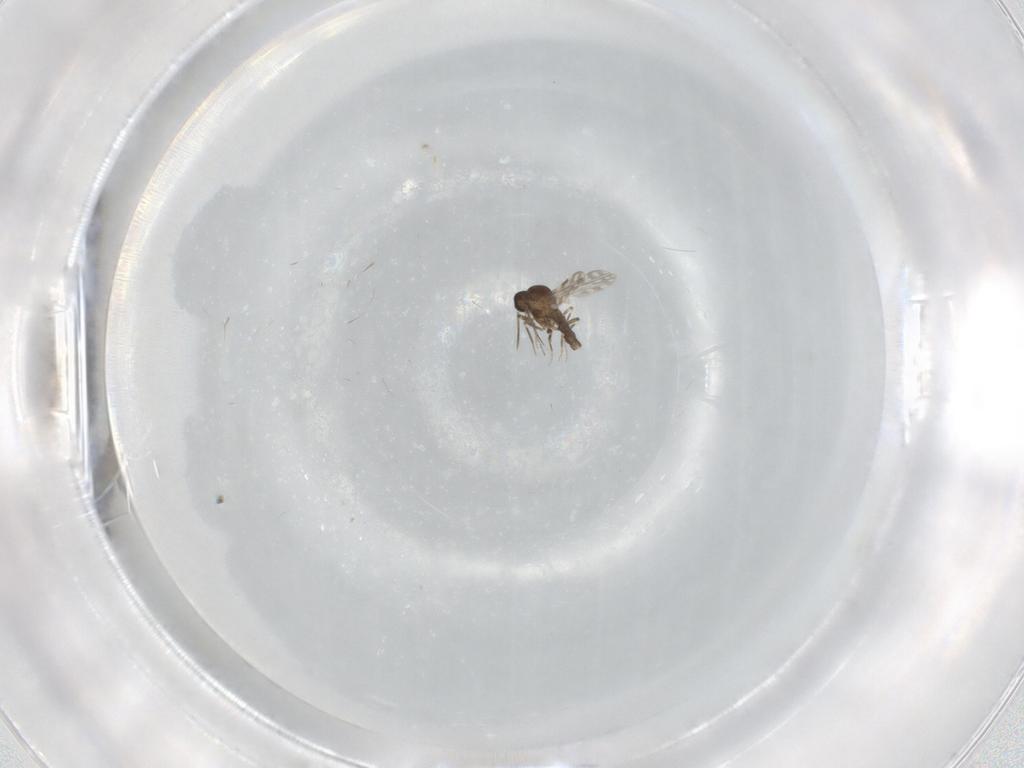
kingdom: Animalia
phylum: Arthropoda
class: Insecta
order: Diptera
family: Ceratopogonidae
